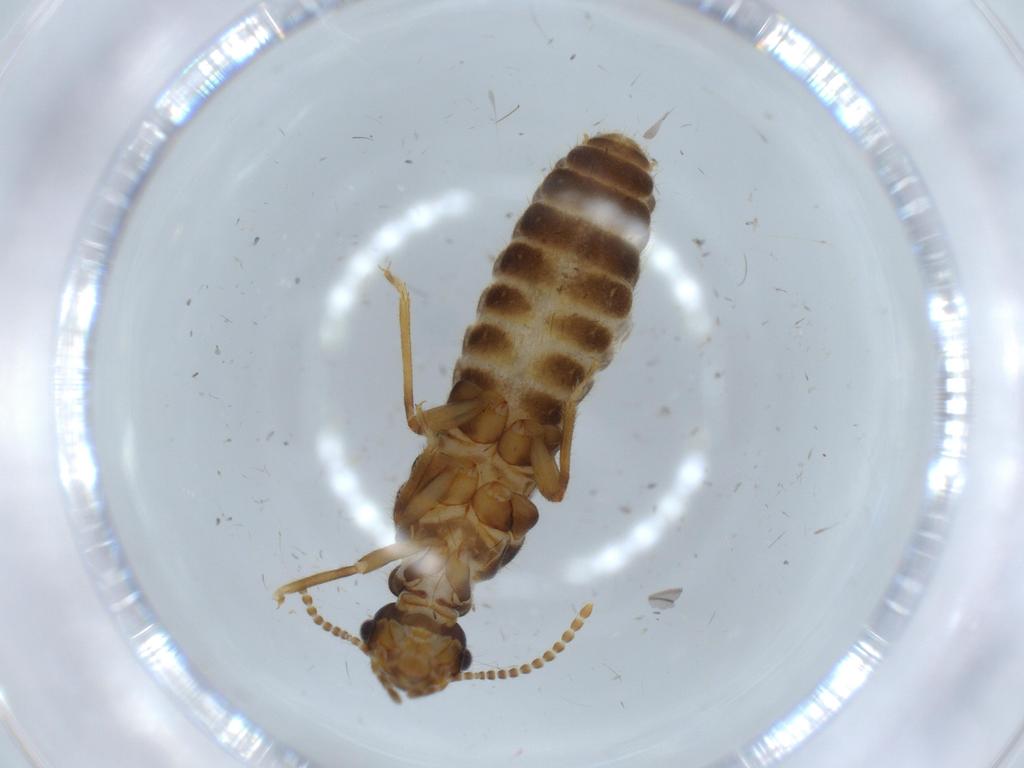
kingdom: Animalia
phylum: Arthropoda
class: Insecta
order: Blattodea
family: Termitidae
